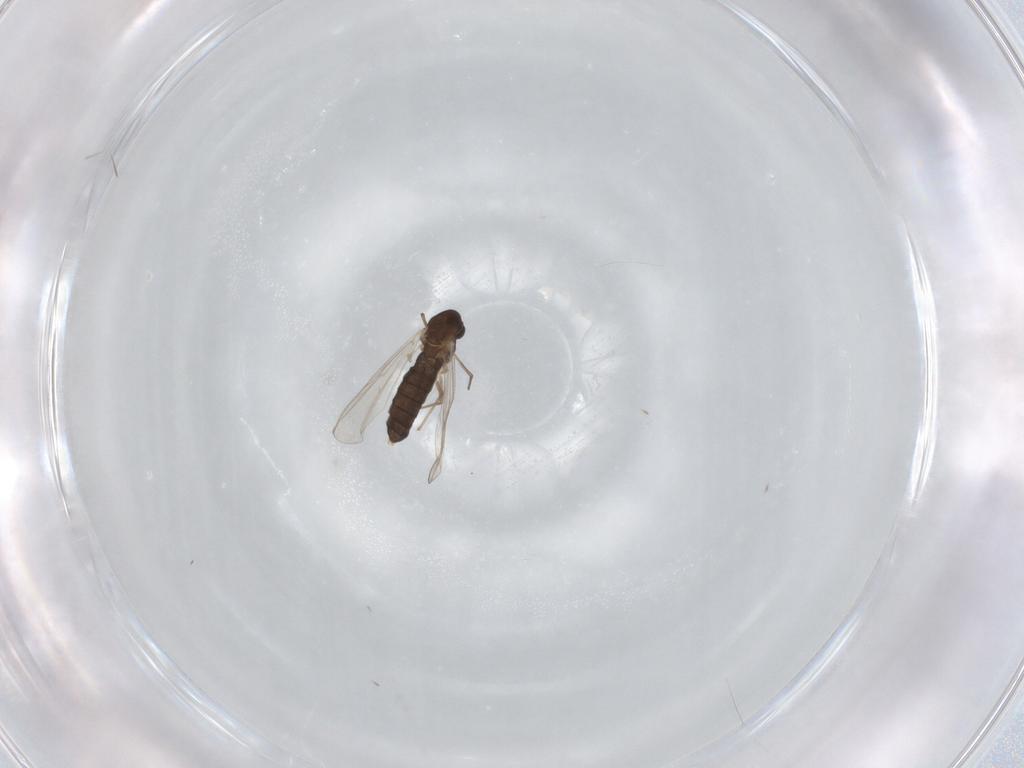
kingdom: Animalia
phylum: Arthropoda
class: Insecta
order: Diptera
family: Chironomidae
